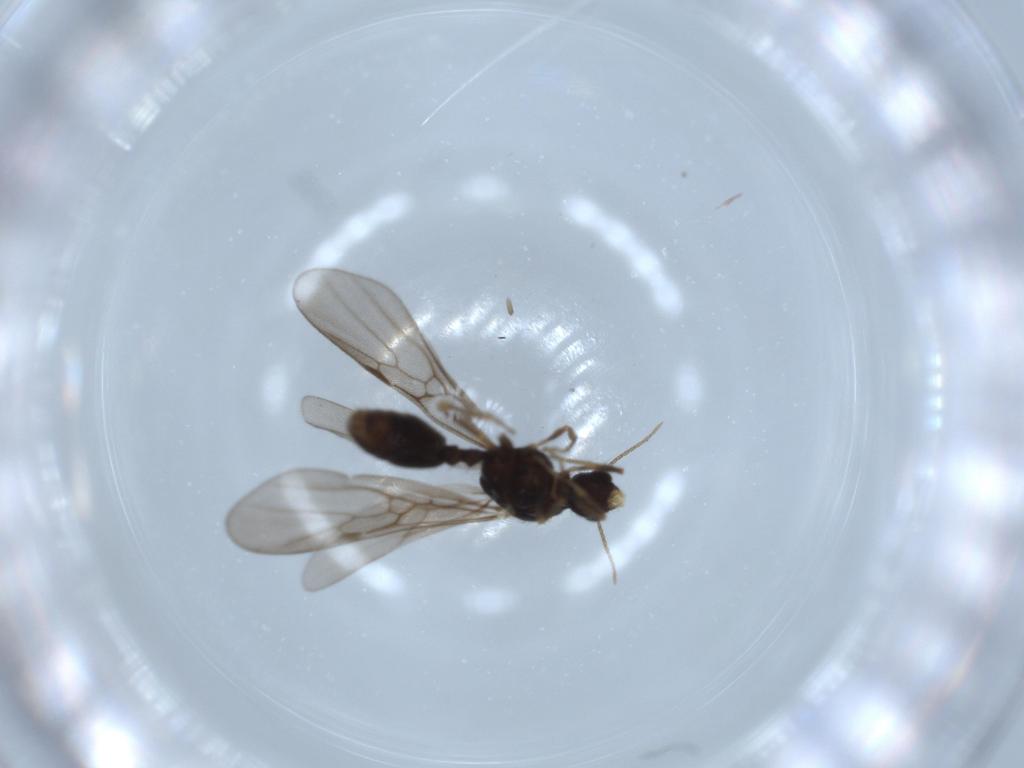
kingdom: Animalia
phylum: Arthropoda
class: Insecta
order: Hymenoptera
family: Formicidae
